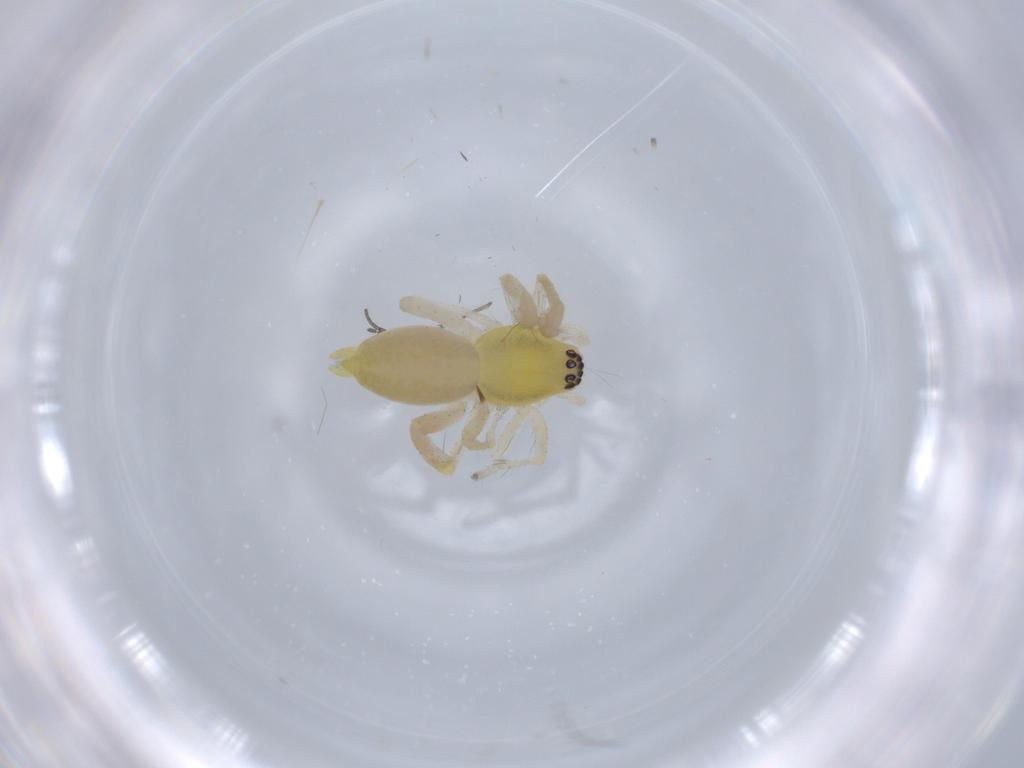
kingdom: Animalia
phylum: Arthropoda
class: Arachnida
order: Araneae
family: Anyphaenidae
